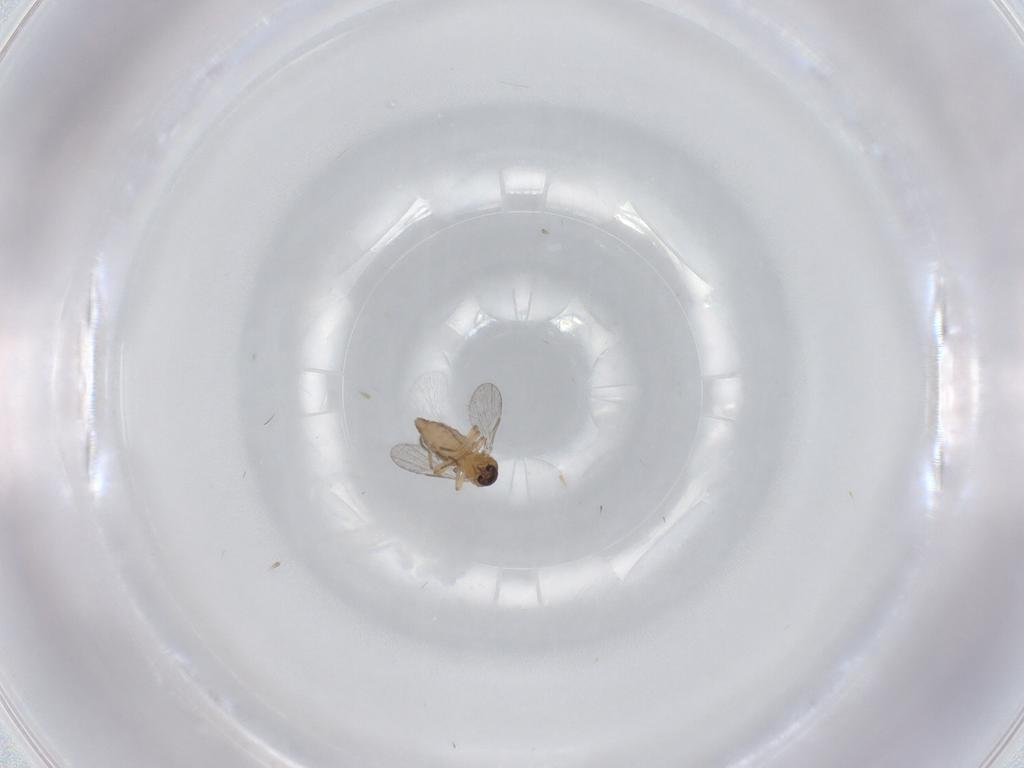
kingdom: Animalia
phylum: Arthropoda
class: Insecta
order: Diptera
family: Ceratopogonidae
